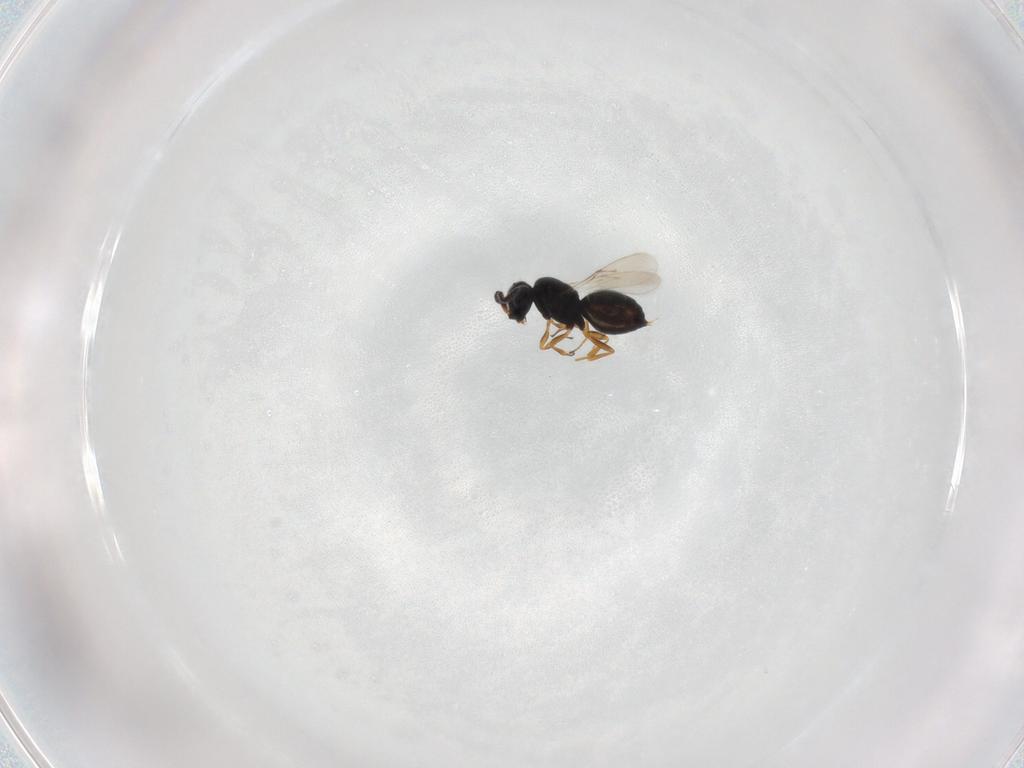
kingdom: Animalia
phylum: Arthropoda
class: Insecta
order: Hymenoptera
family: Scelionidae
